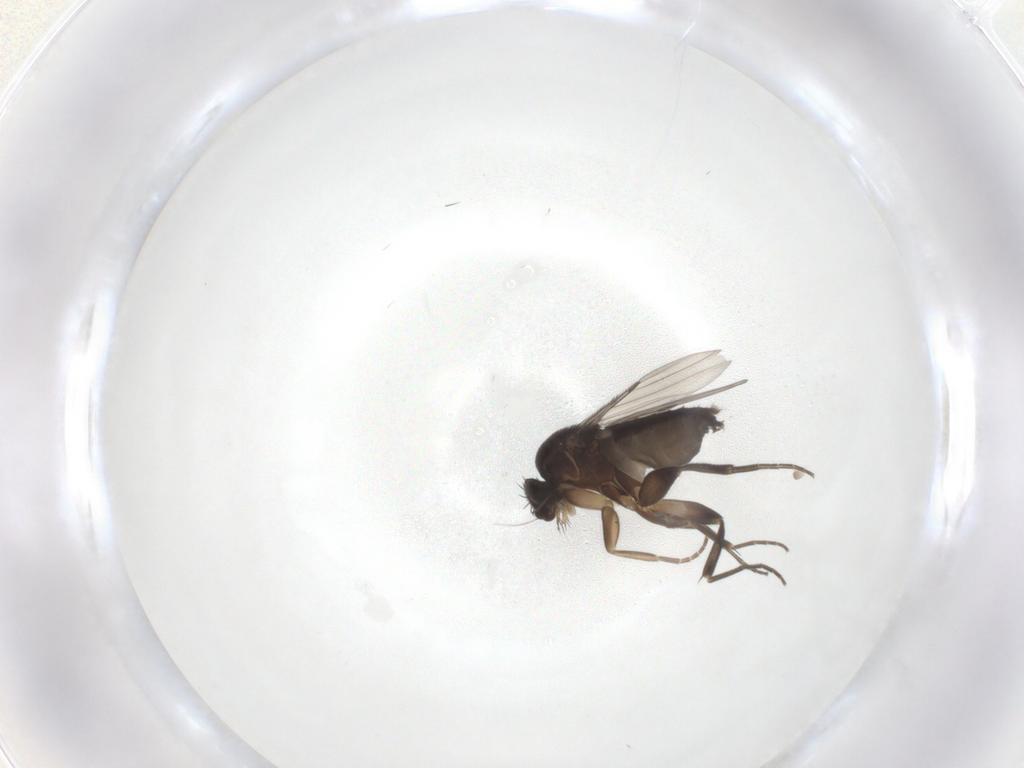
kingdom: Animalia
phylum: Arthropoda
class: Insecta
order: Diptera
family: Phoridae
